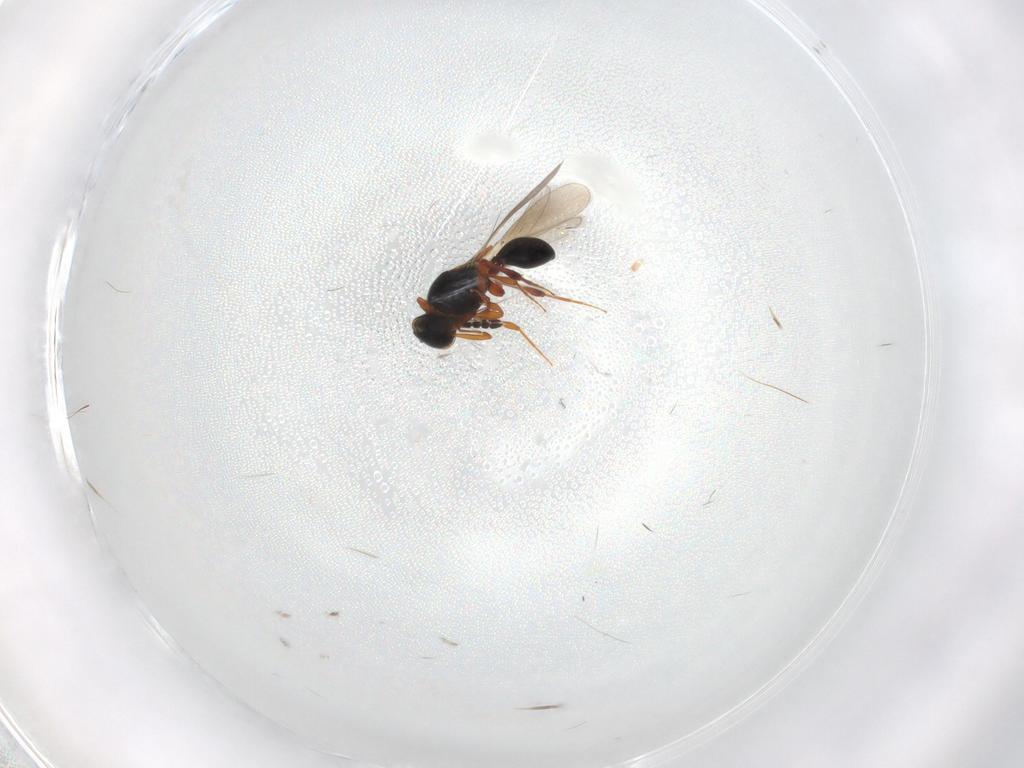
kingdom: Animalia
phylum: Arthropoda
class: Insecta
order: Hymenoptera
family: Platygastridae
